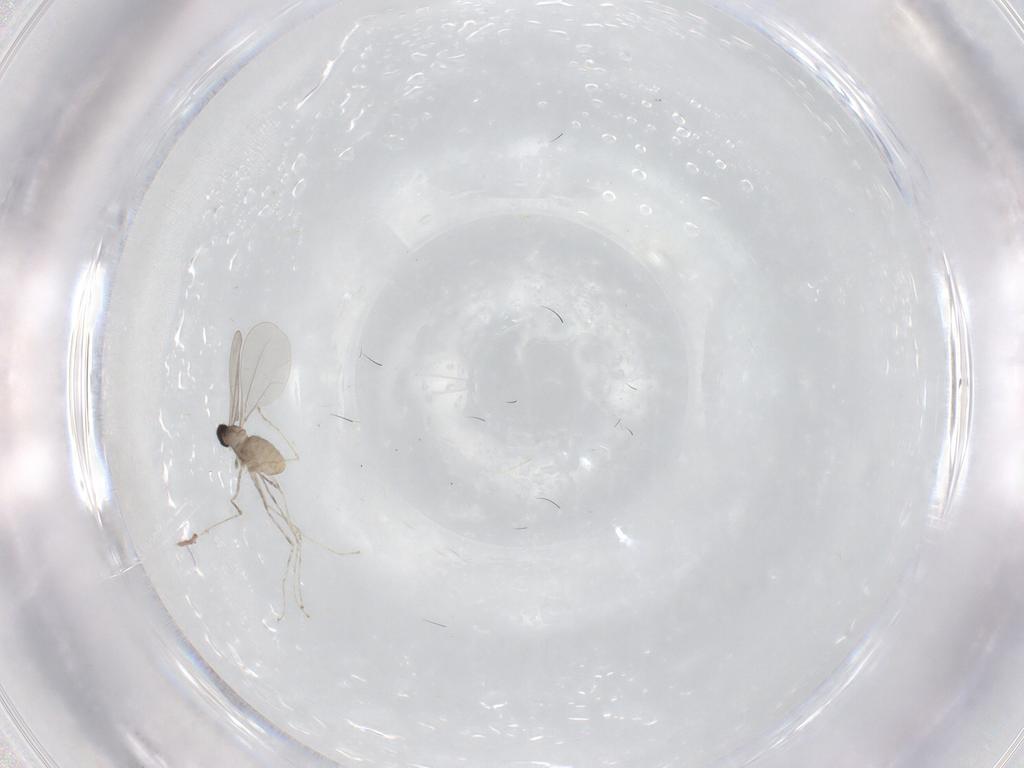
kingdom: Animalia
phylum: Arthropoda
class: Insecta
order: Diptera
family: Cecidomyiidae
